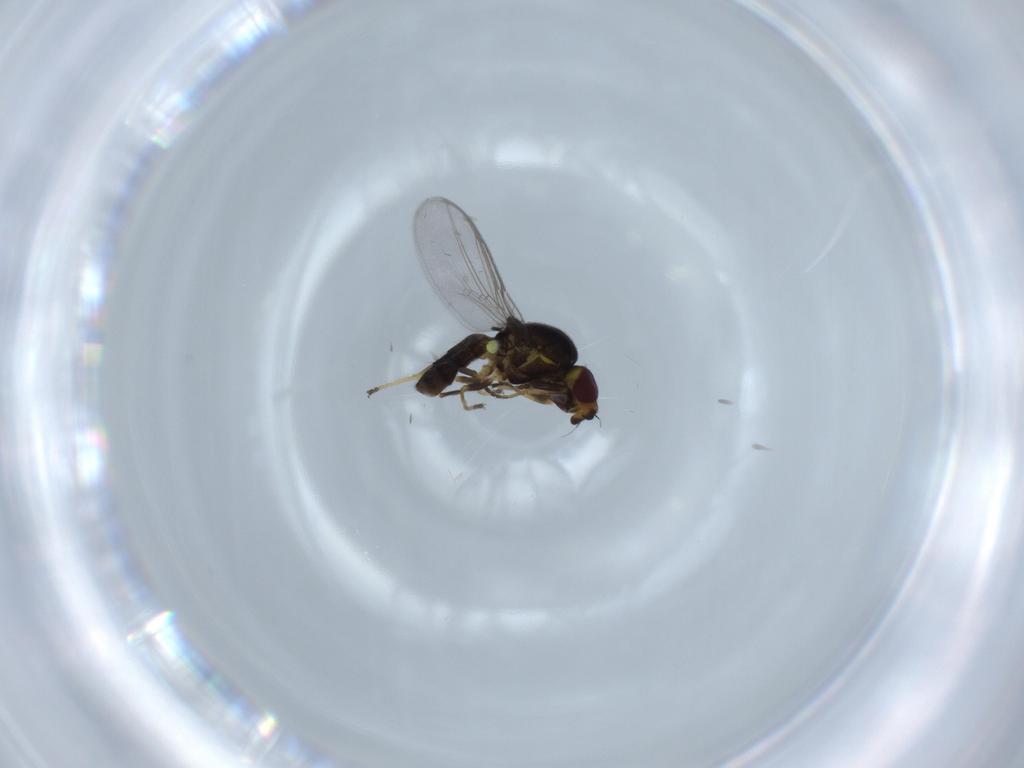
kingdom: Animalia
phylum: Arthropoda
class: Insecta
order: Diptera
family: Chloropidae
